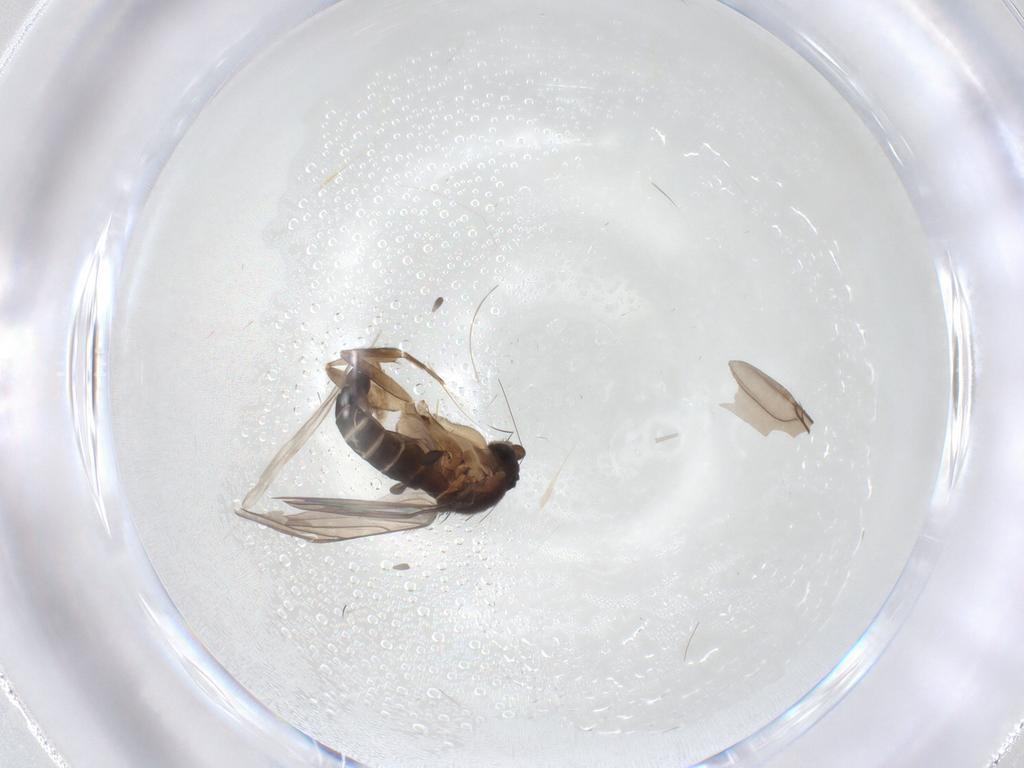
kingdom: Animalia
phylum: Arthropoda
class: Insecta
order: Diptera
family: Phoridae
